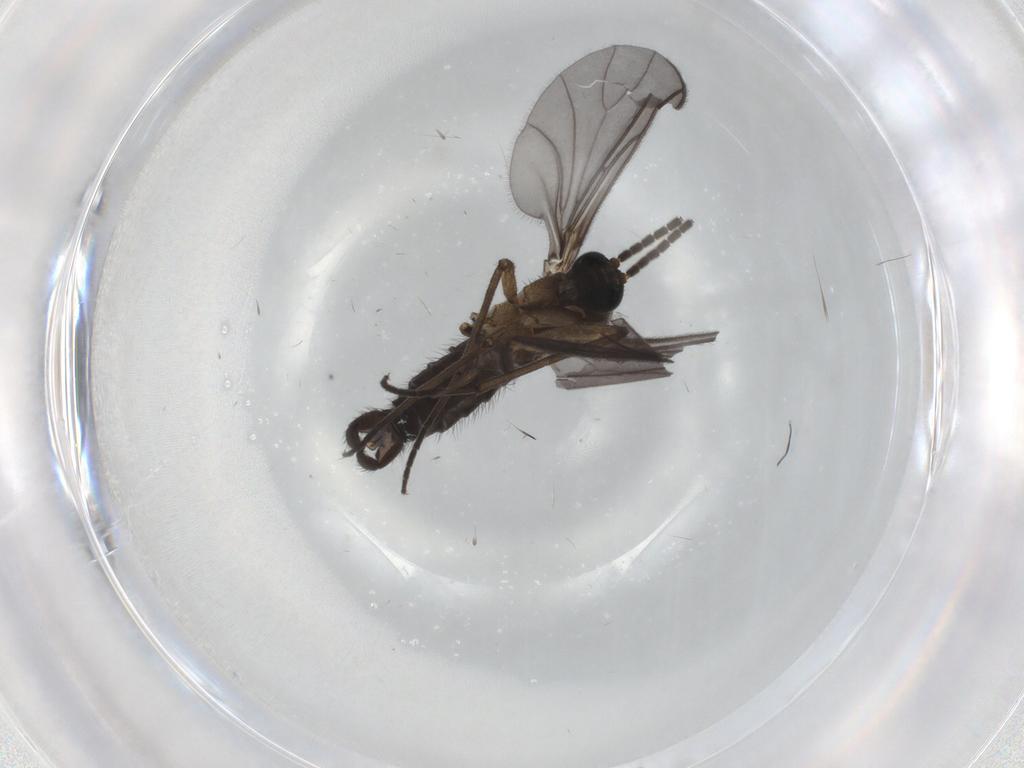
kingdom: Animalia
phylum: Arthropoda
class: Insecta
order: Diptera
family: Sciaridae
